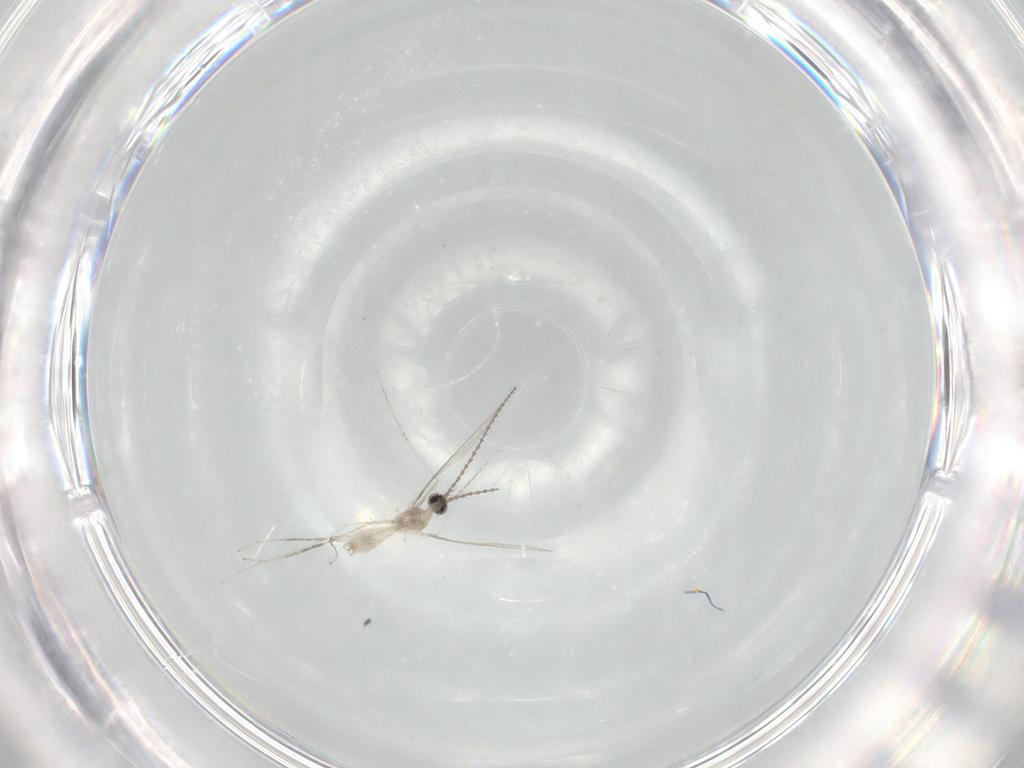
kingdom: Animalia
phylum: Arthropoda
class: Insecta
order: Diptera
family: Cecidomyiidae
